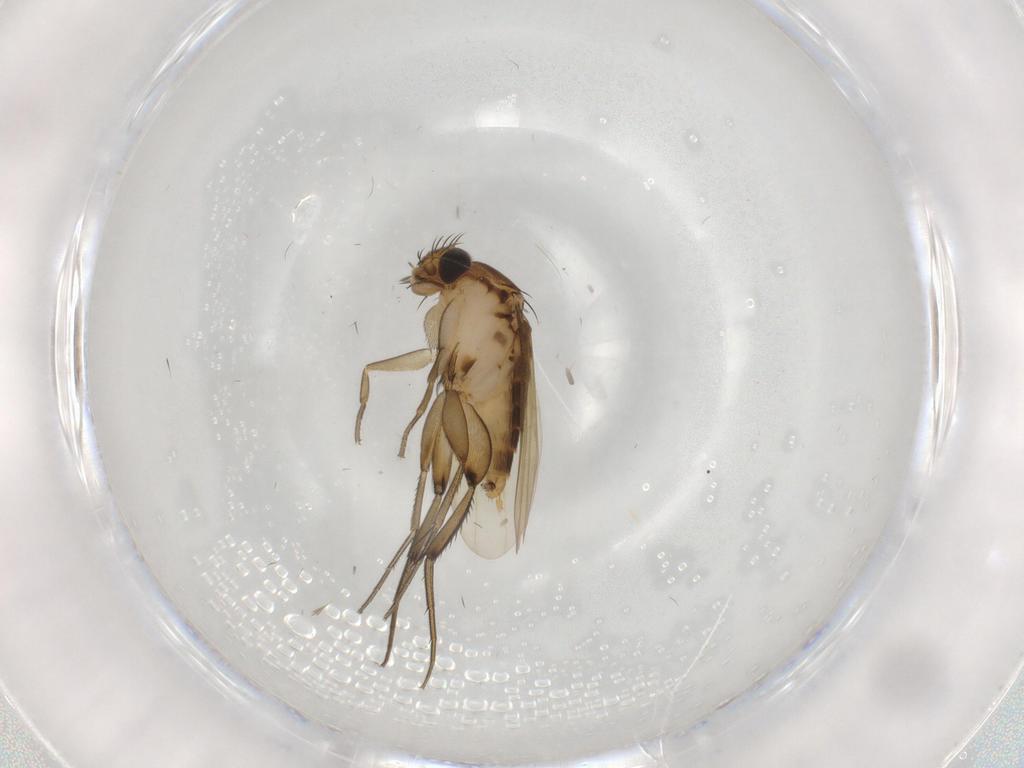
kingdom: Animalia
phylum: Arthropoda
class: Insecta
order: Diptera
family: Phoridae
